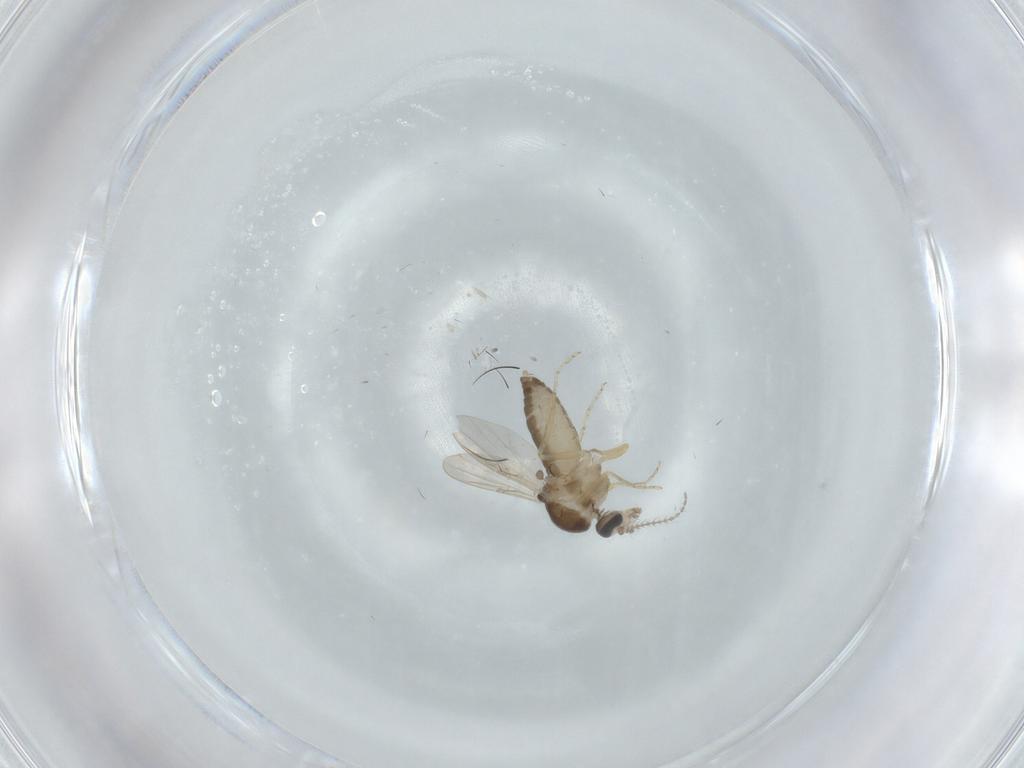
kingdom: Animalia
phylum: Arthropoda
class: Insecta
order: Diptera
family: Ceratopogonidae
